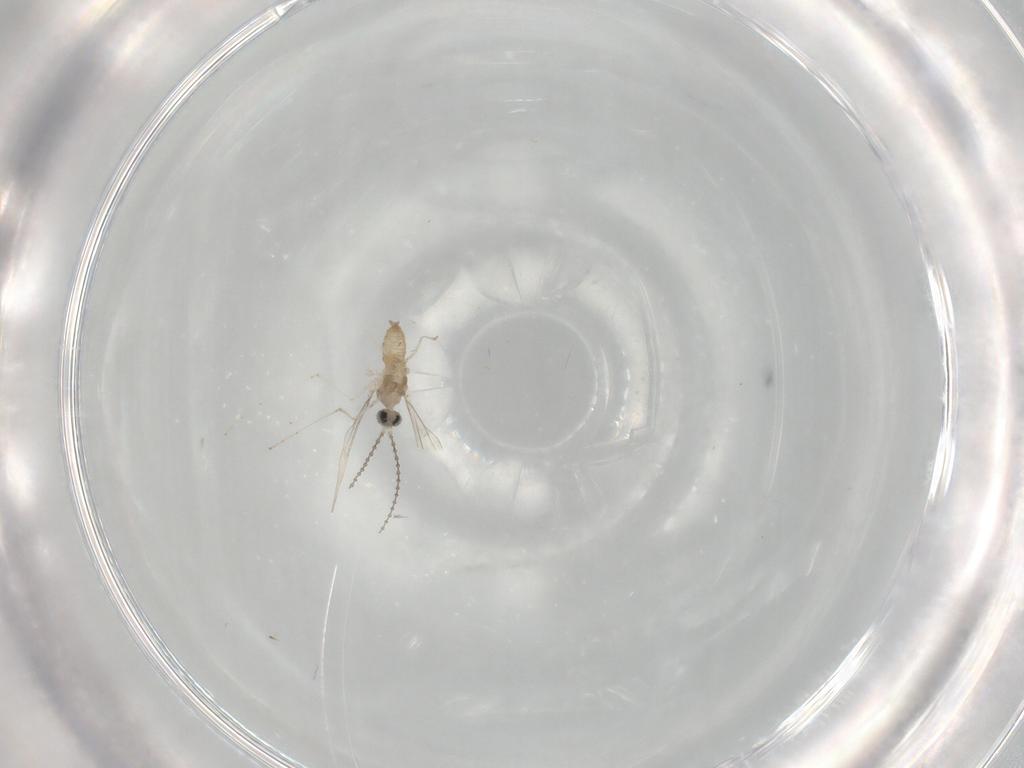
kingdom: Animalia
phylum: Arthropoda
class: Insecta
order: Diptera
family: Cecidomyiidae
